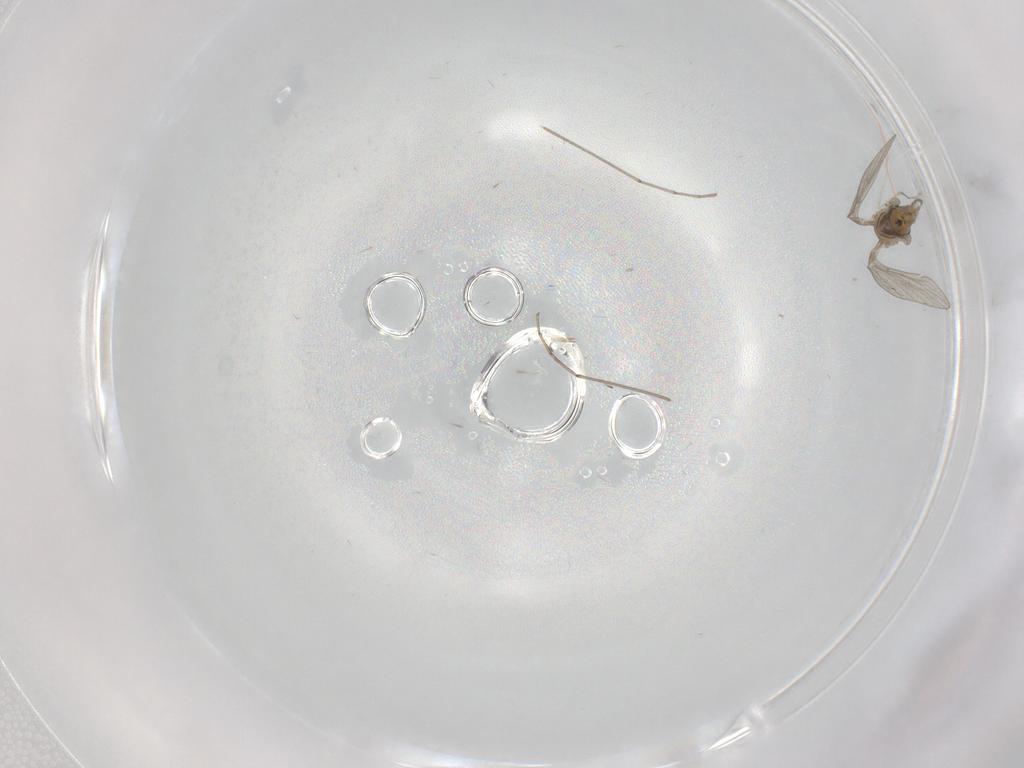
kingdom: Animalia
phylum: Arthropoda
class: Insecta
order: Diptera
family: Psychodidae
